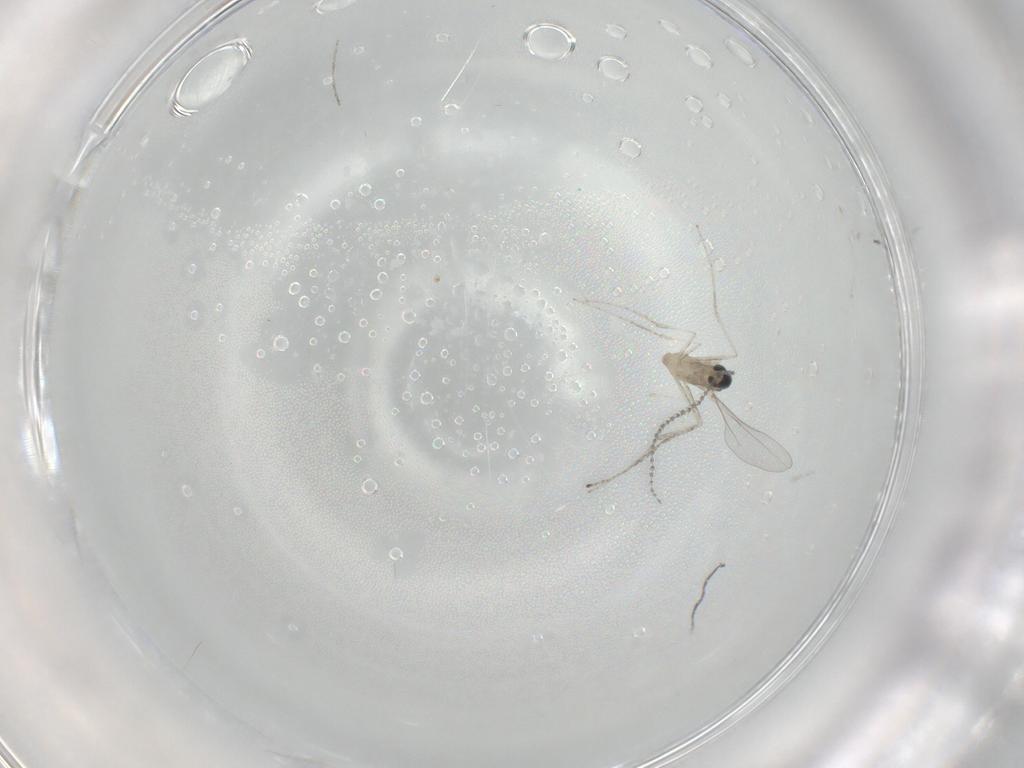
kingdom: Animalia
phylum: Arthropoda
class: Insecta
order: Diptera
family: Cecidomyiidae
